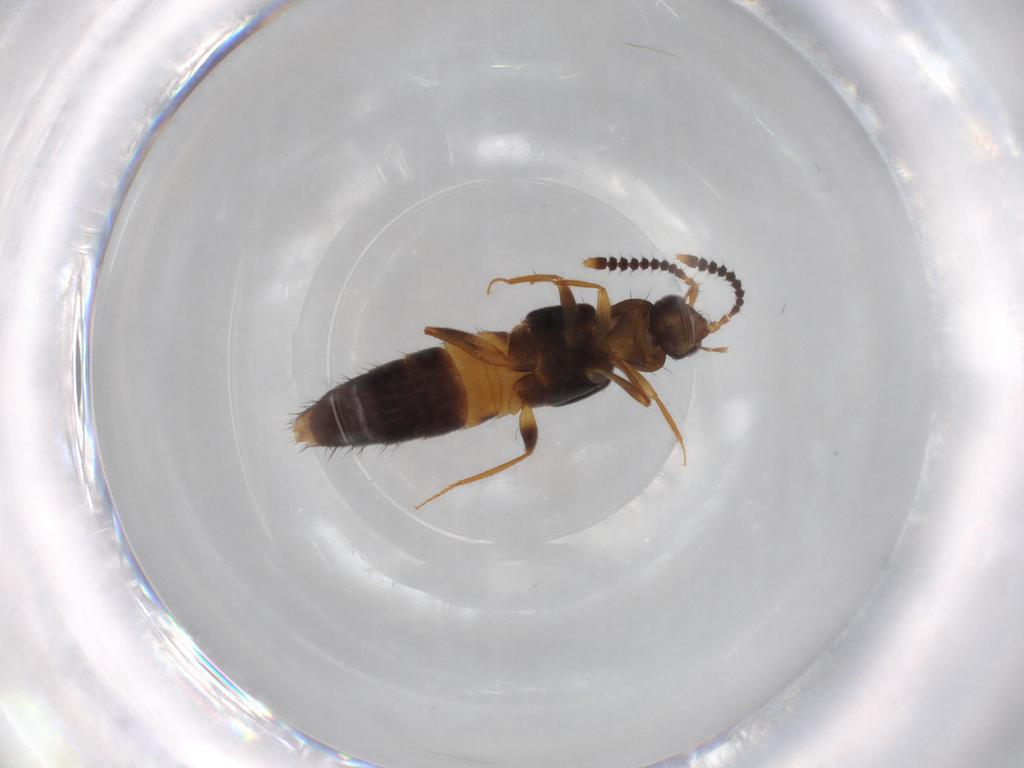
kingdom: Animalia
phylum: Arthropoda
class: Insecta
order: Coleoptera
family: Staphylinidae
